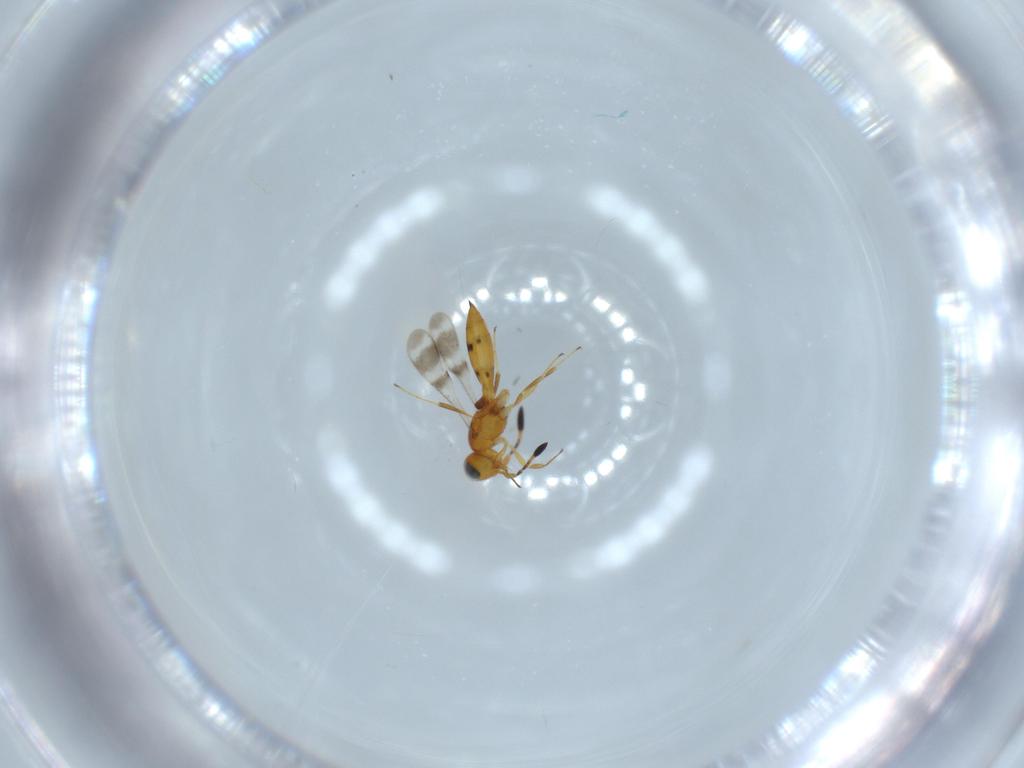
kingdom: Animalia
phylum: Arthropoda
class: Insecta
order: Hymenoptera
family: Scelionidae
